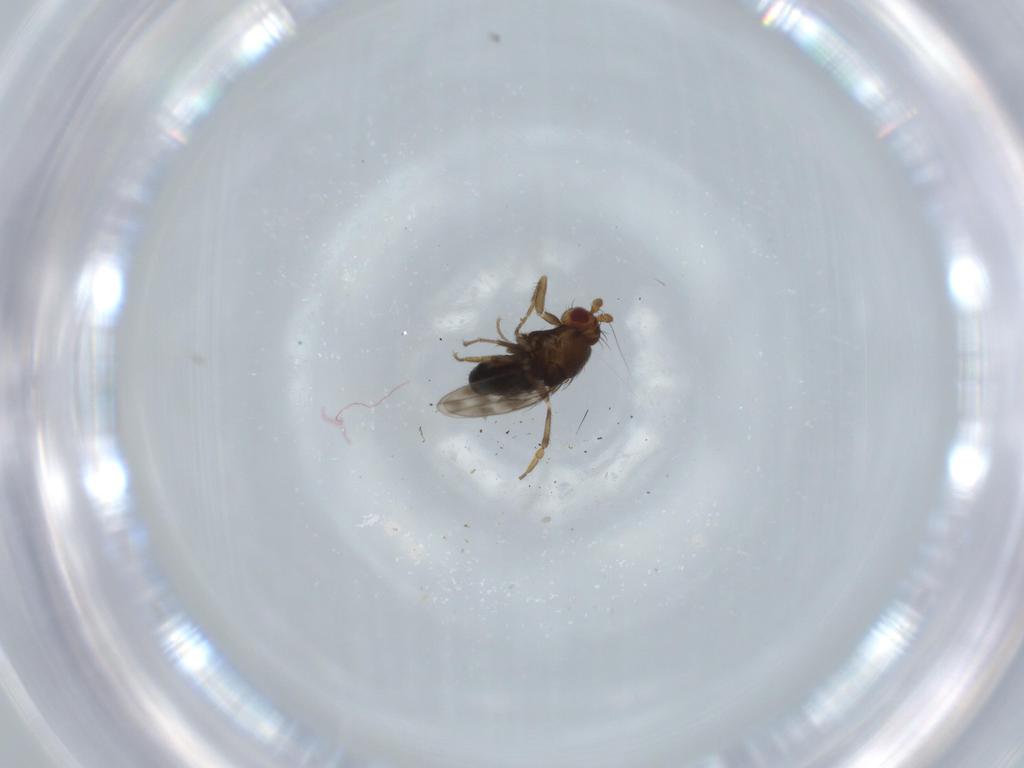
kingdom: Animalia
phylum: Arthropoda
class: Insecta
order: Diptera
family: Sphaeroceridae
